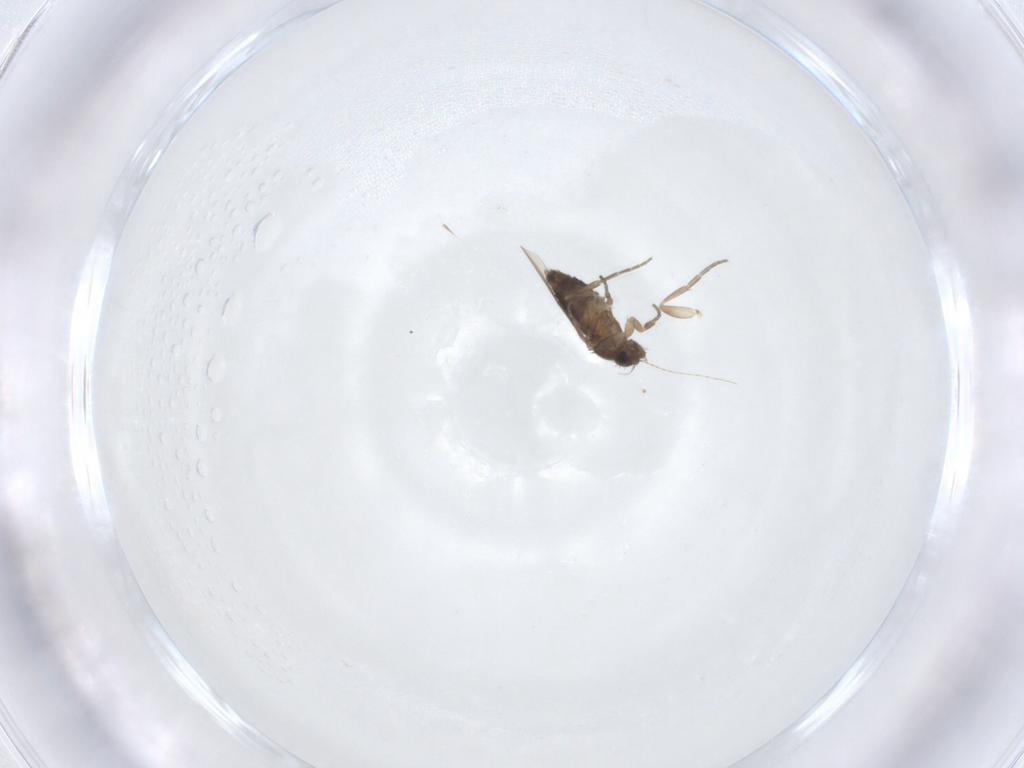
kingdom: Animalia
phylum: Arthropoda
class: Insecta
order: Diptera
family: Phoridae
